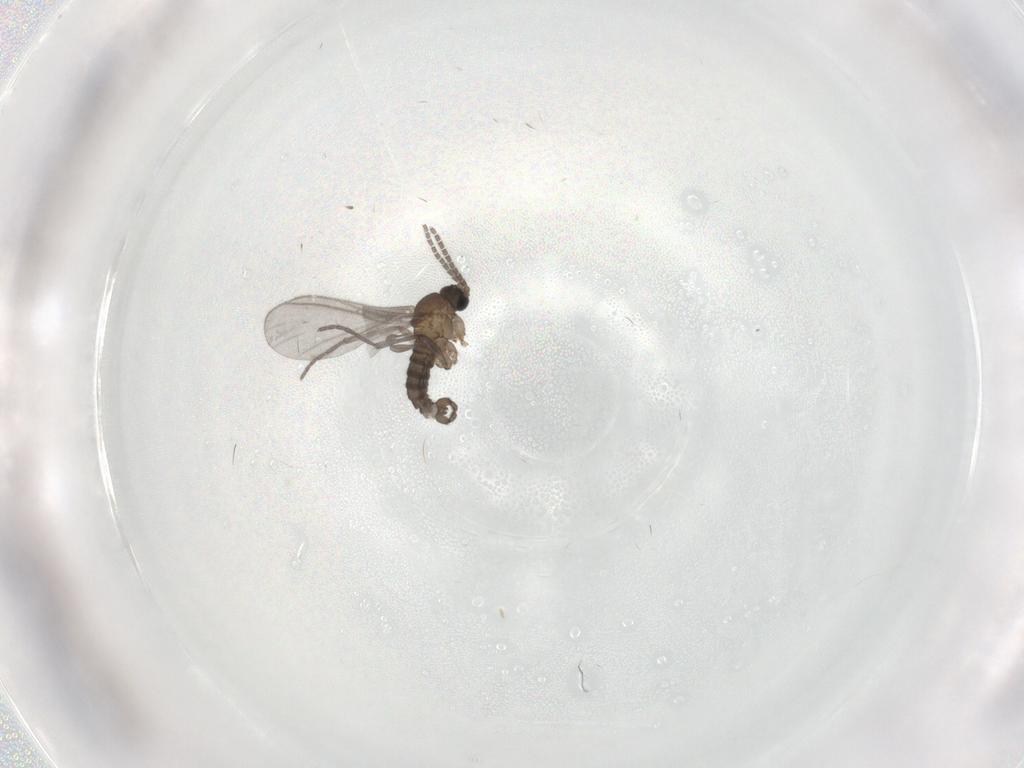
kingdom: Animalia
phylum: Arthropoda
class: Insecta
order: Diptera
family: Sciaridae
